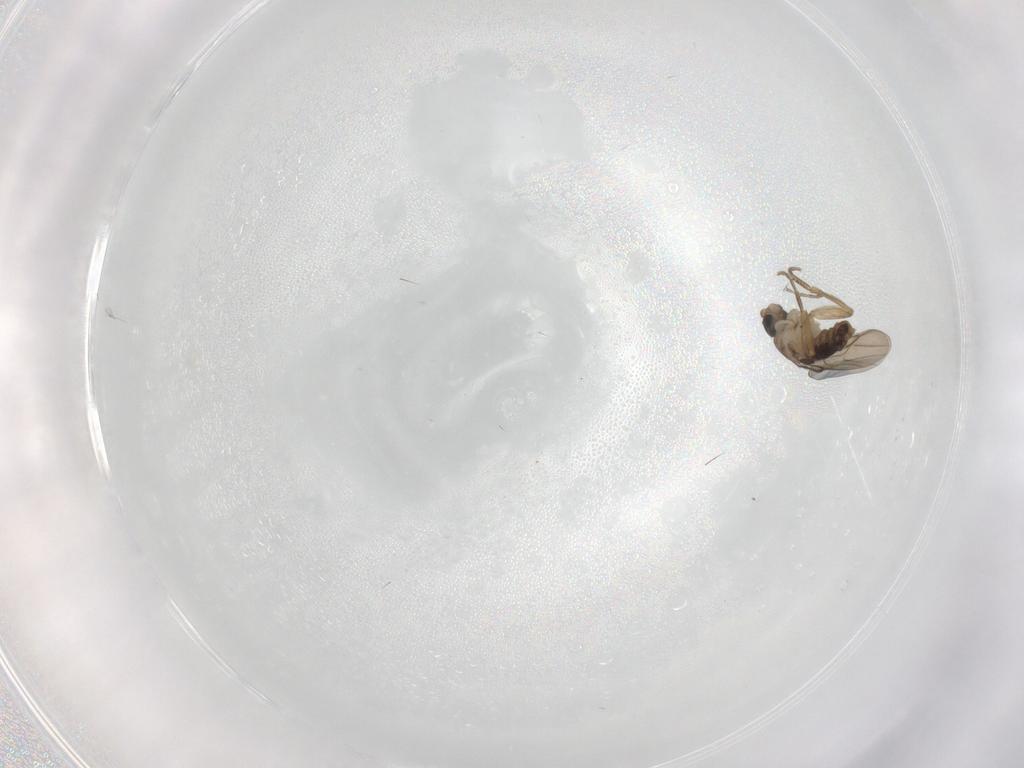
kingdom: Animalia
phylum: Arthropoda
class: Insecta
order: Diptera
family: Phoridae
